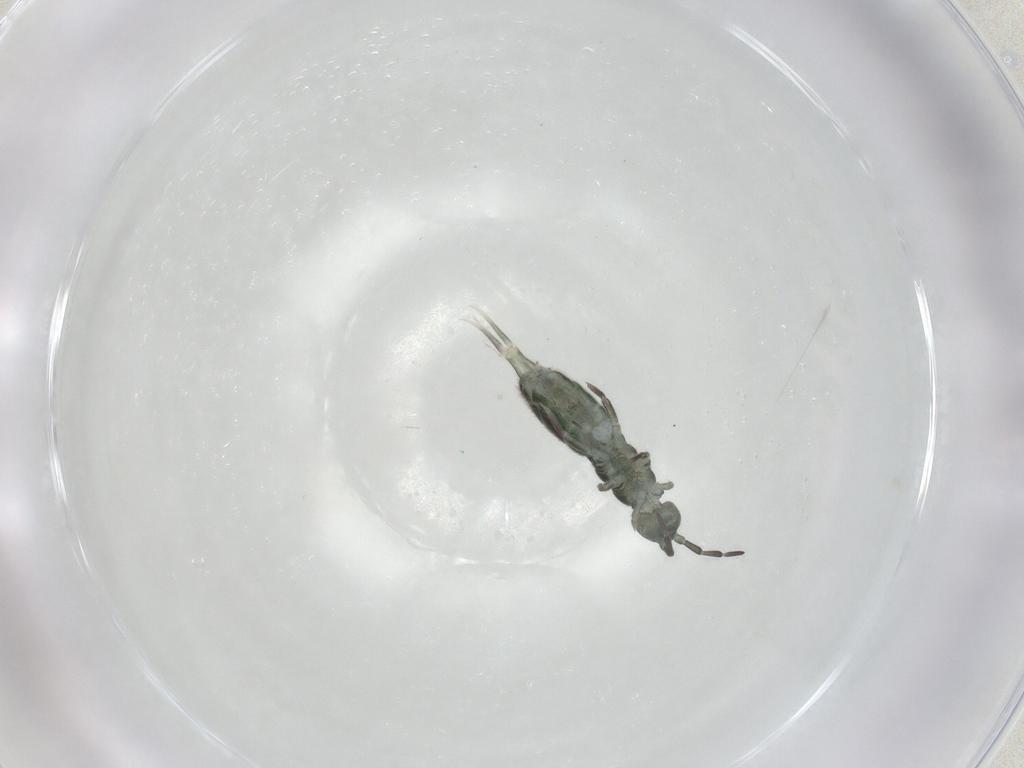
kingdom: Animalia
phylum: Arthropoda
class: Collembola
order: Entomobryomorpha
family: Isotomidae
